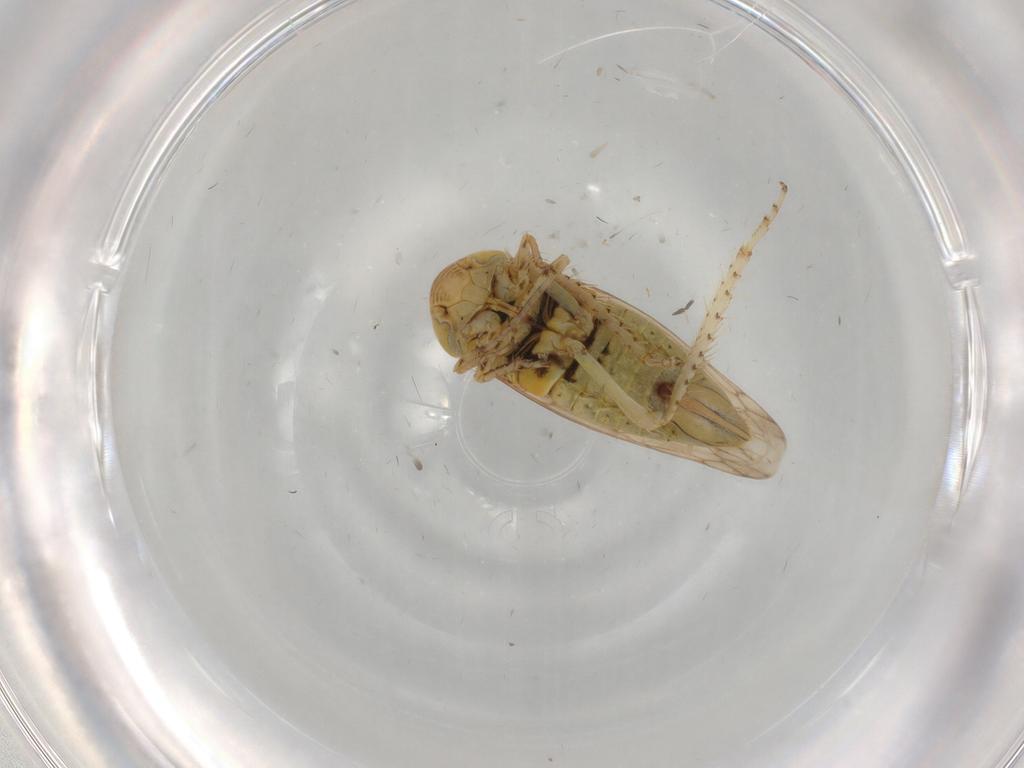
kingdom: Animalia
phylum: Arthropoda
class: Insecta
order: Hemiptera
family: Cicadellidae
